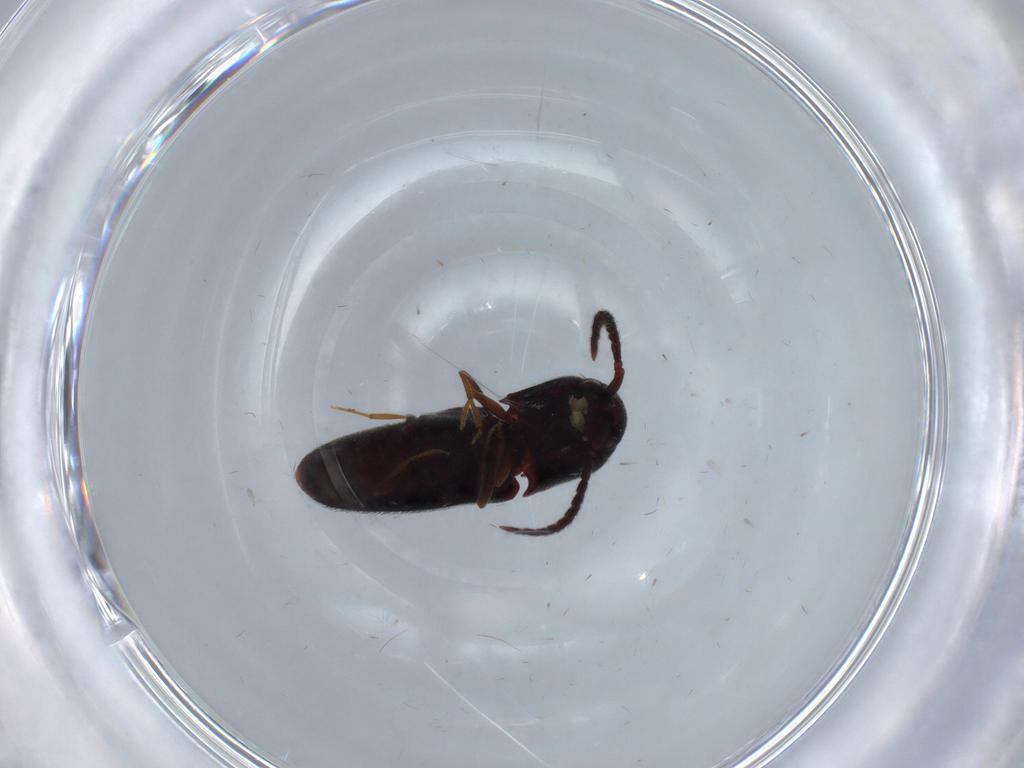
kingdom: Animalia
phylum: Arthropoda
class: Insecta
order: Coleoptera
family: Eucnemidae
